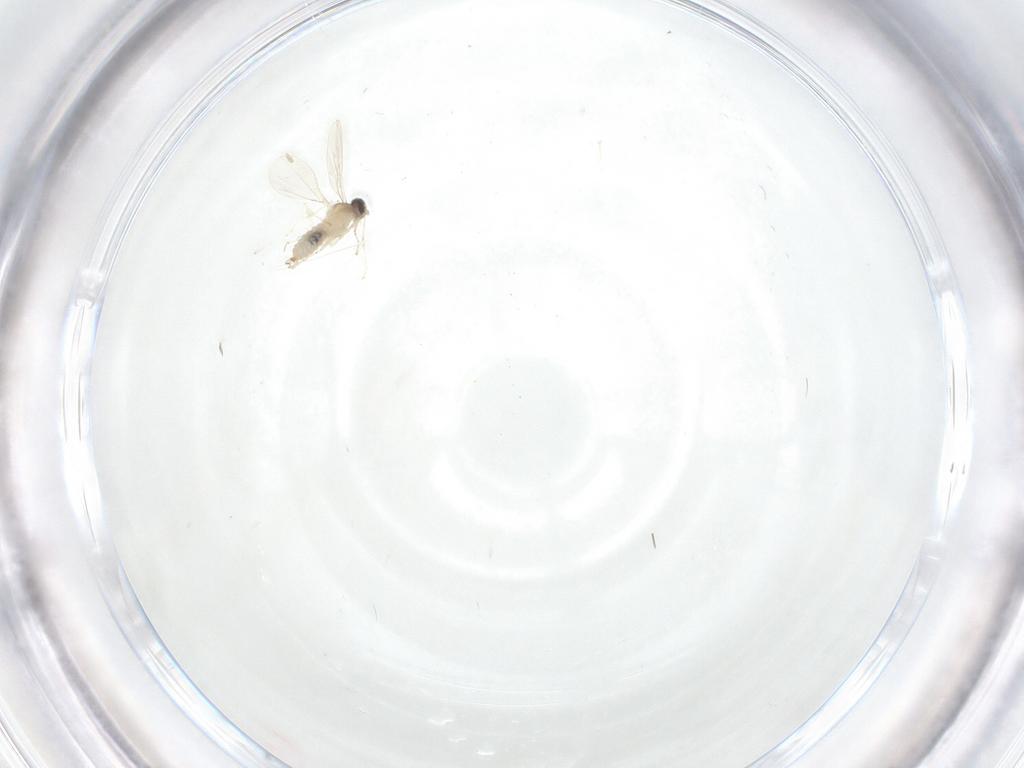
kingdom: Animalia
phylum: Arthropoda
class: Insecta
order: Diptera
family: Cecidomyiidae
